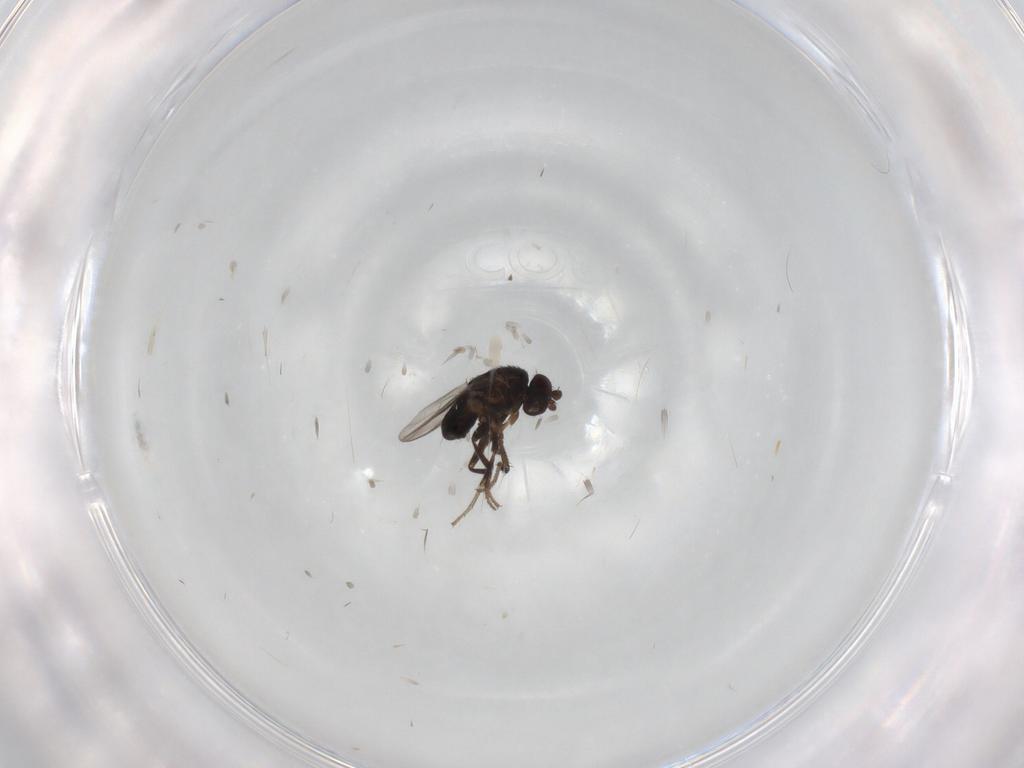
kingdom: Animalia
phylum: Arthropoda
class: Insecta
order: Diptera
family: Sphaeroceridae
